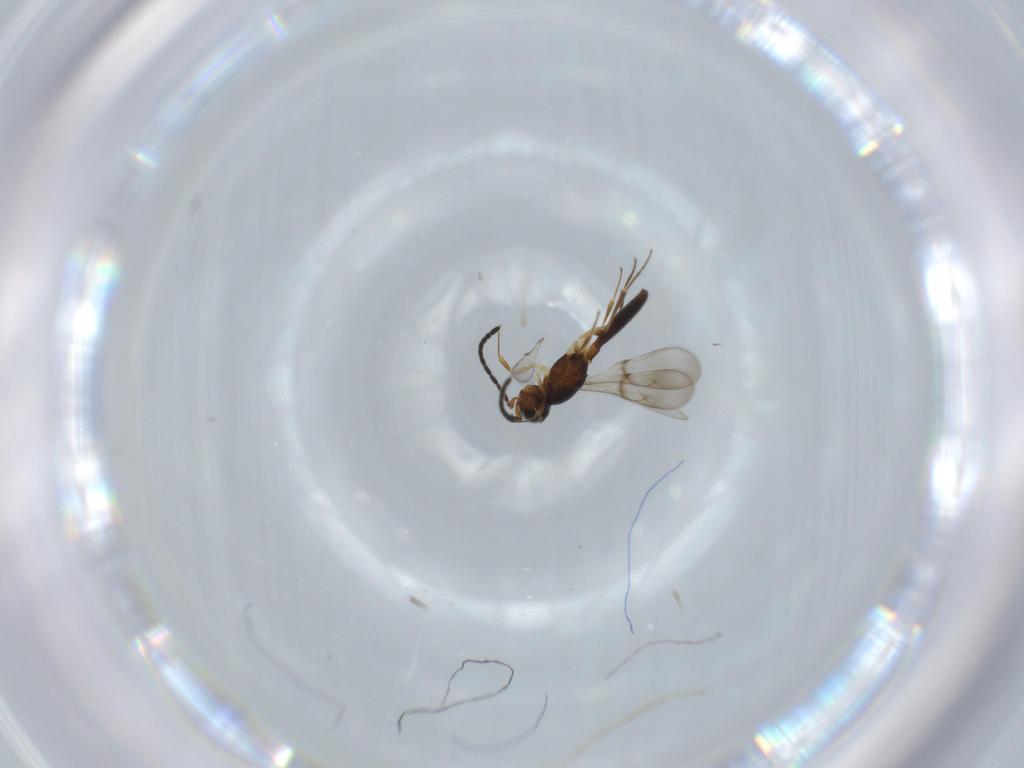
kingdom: Animalia
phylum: Arthropoda
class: Insecta
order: Hymenoptera
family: Scelionidae
